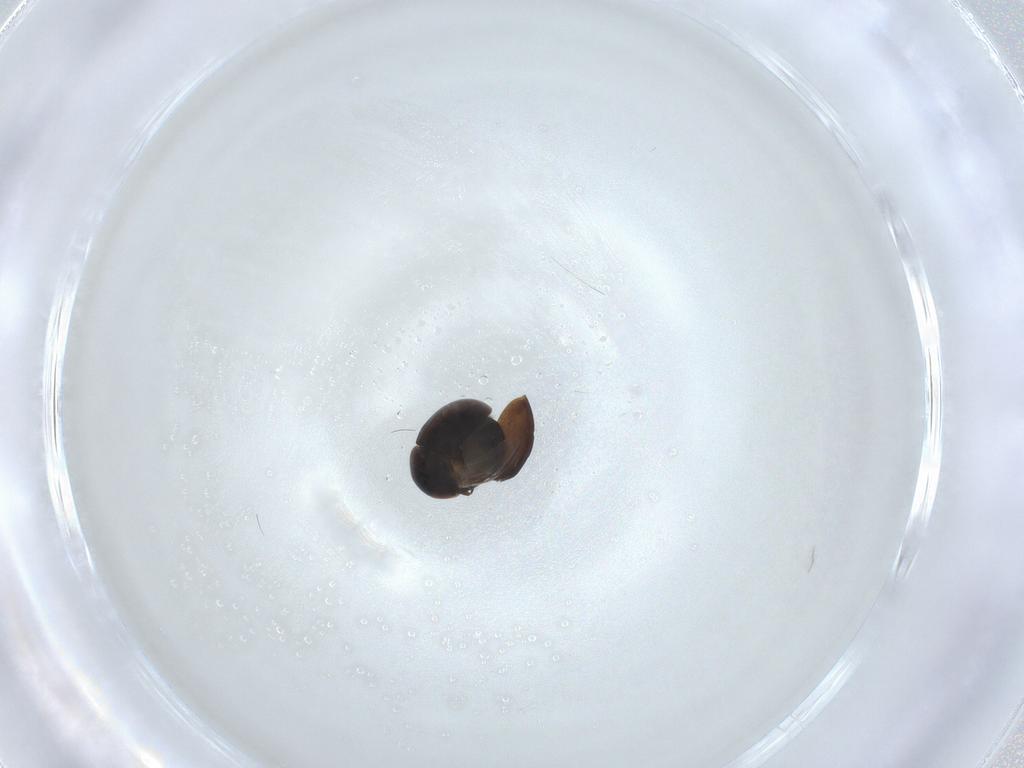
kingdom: Animalia
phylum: Arthropoda
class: Insecta
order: Coleoptera
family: Corylophidae
